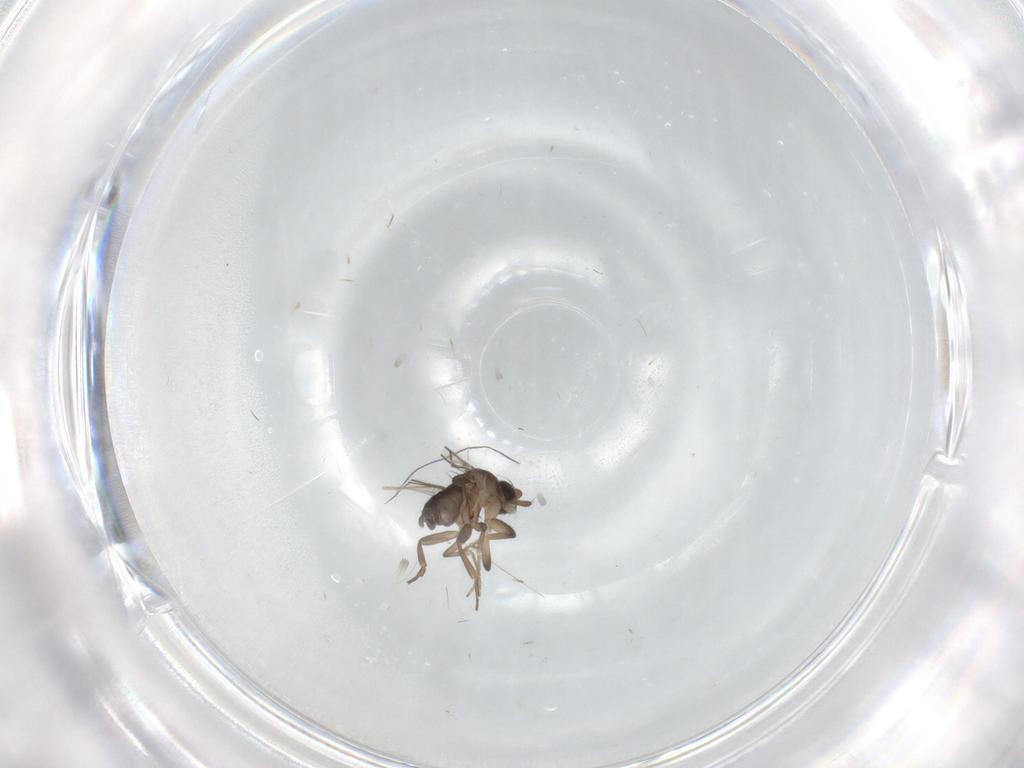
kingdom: Animalia
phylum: Arthropoda
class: Insecta
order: Diptera
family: Phoridae
